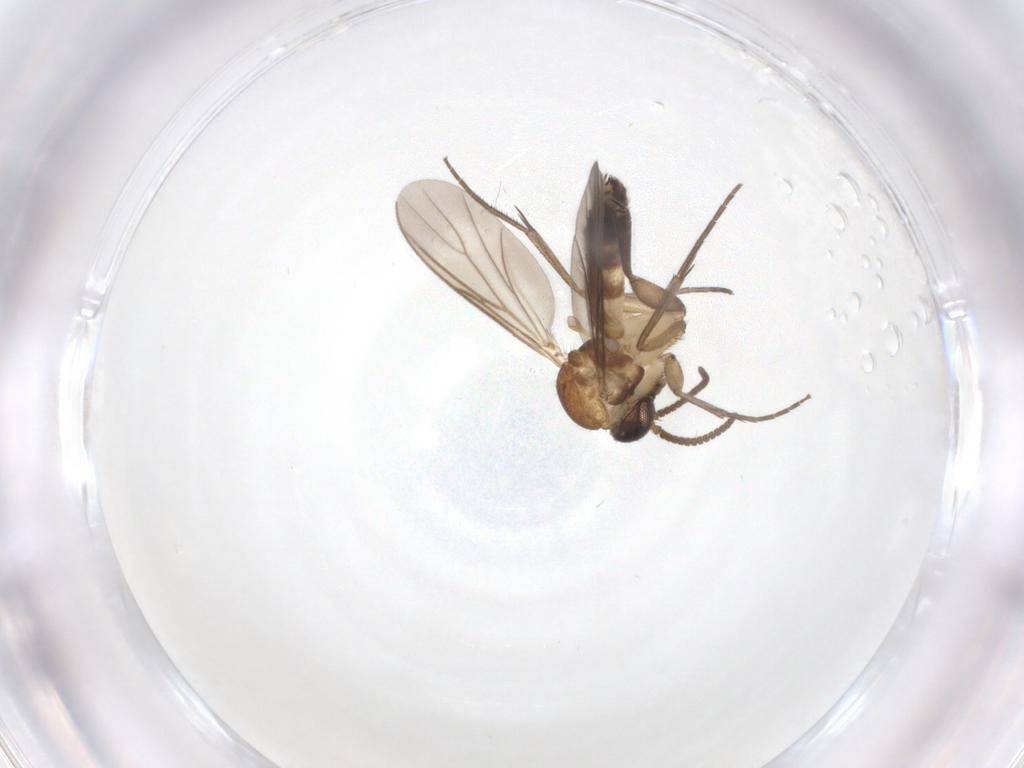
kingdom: Animalia
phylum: Arthropoda
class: Insecta
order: Diptera
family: Mycetophilidae
